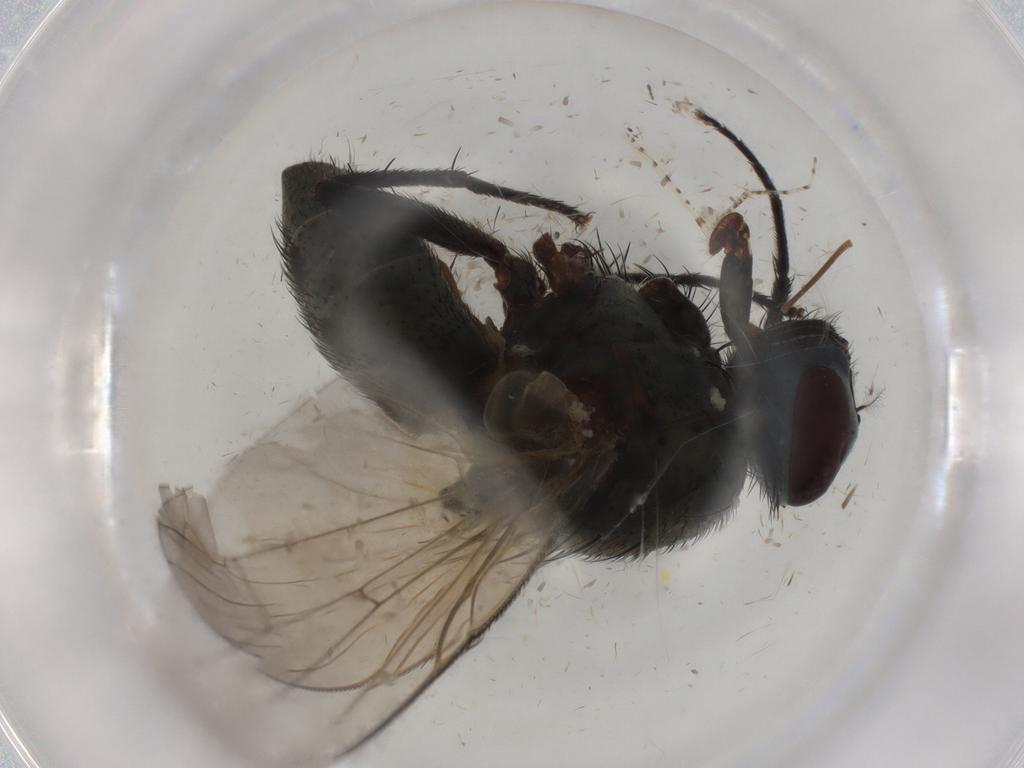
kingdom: Animalia
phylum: Arthropoda
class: Insecta
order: Diptera
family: Muscidae
